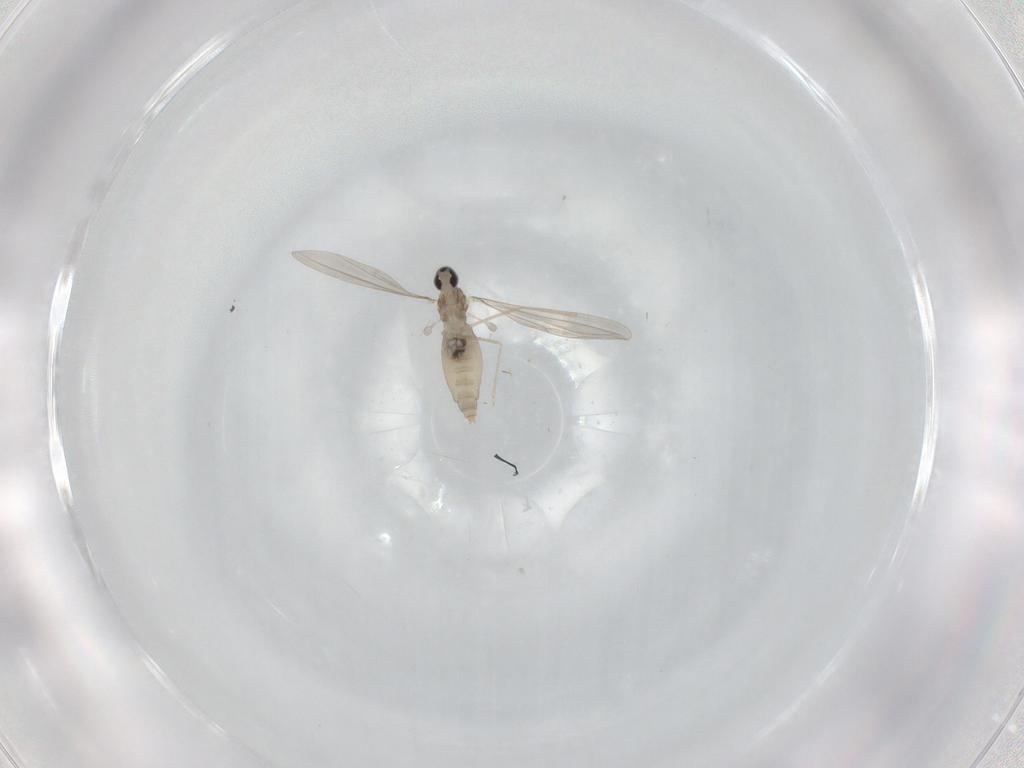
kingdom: Animalia
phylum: Arthropoda
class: Insecta
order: Diptera
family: Cecidomyiidae
